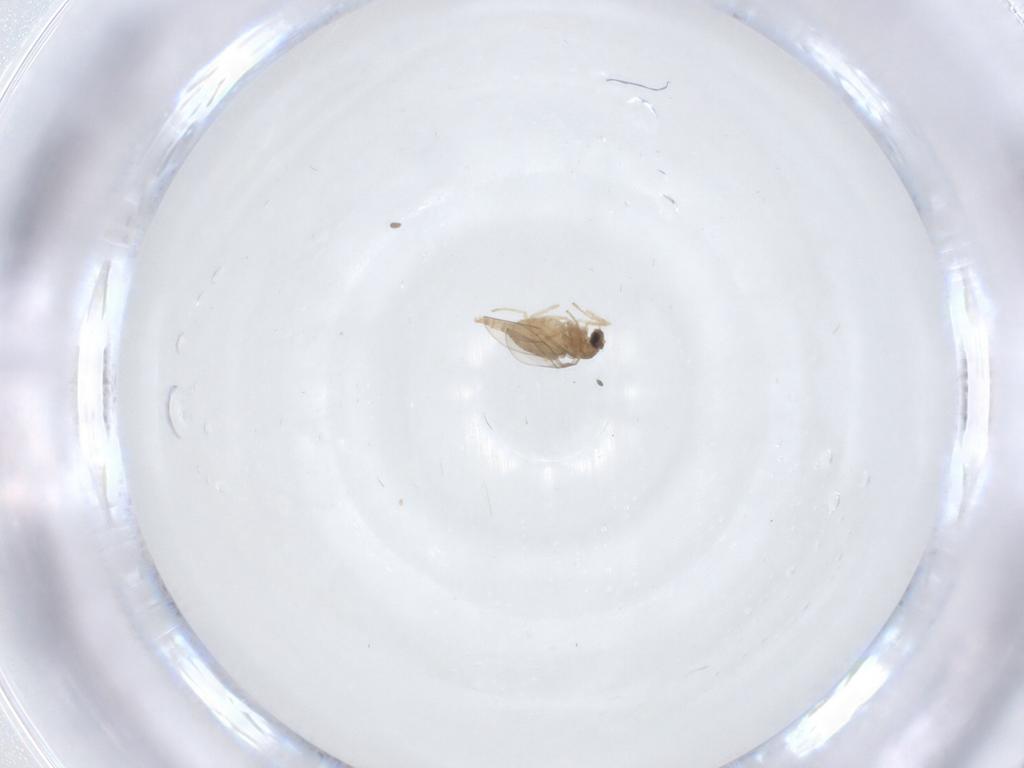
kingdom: Animalia
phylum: Arthropoda
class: Insecta
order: Diptera
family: Cecidomyiidae
